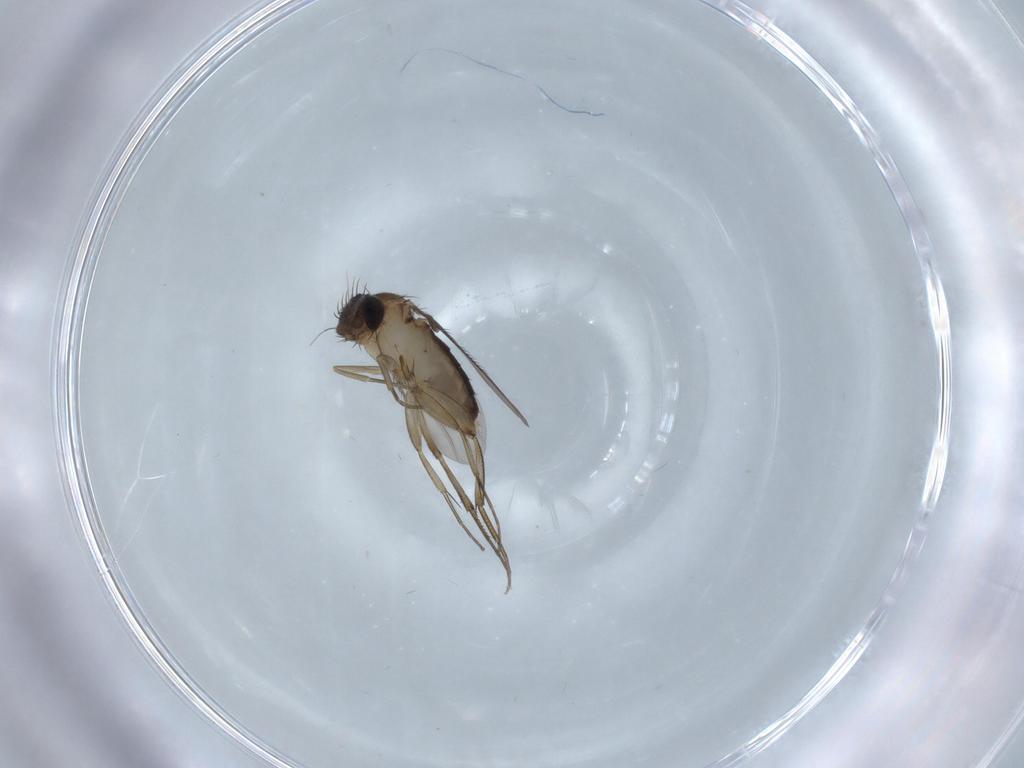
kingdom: Animalia
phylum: Arthropoda
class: Insecta
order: Diptera
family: Phoridae
